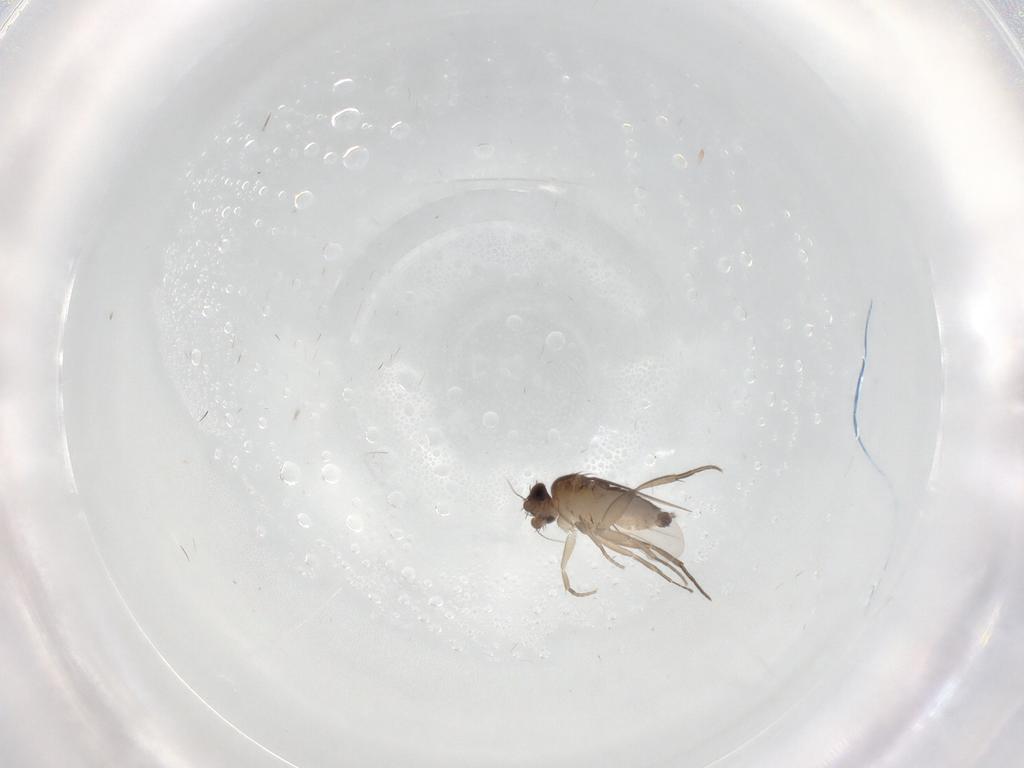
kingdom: Animalia
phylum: Arthropoda
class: Insecta
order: Diptera
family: Phoridae
